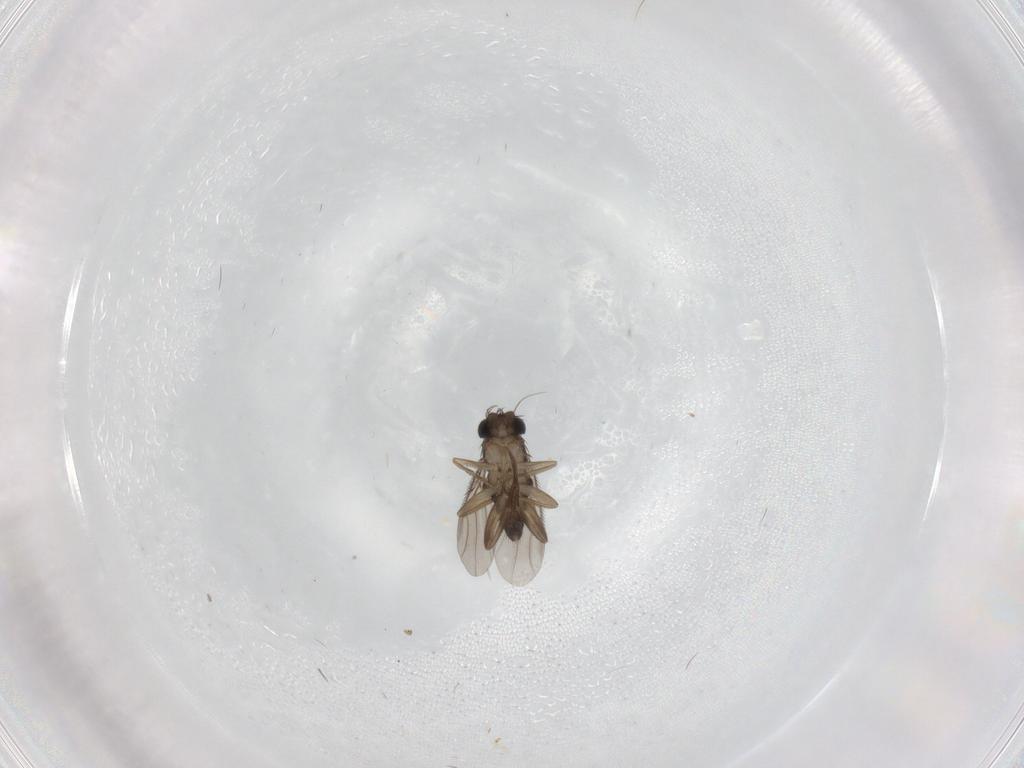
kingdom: Animalia
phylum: Arthropoda
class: Insecta
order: Diptera
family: Phoridae
